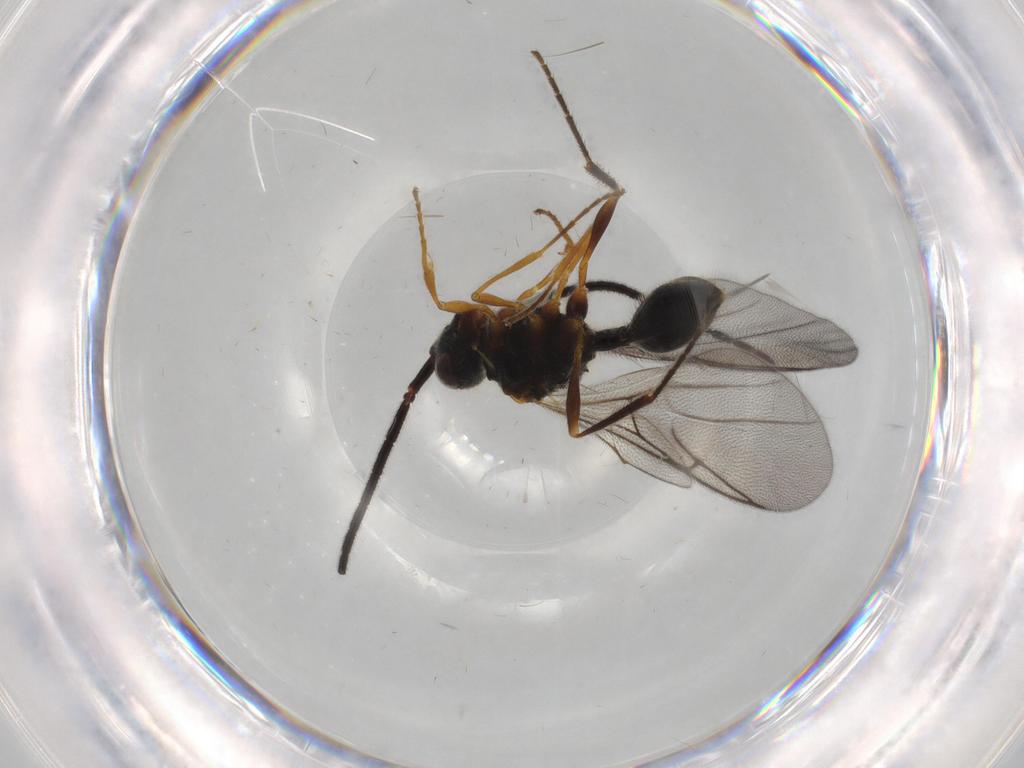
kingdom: Animalia
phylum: Arthropoda
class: Insecta
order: Hymenoptera
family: Diapriidae
